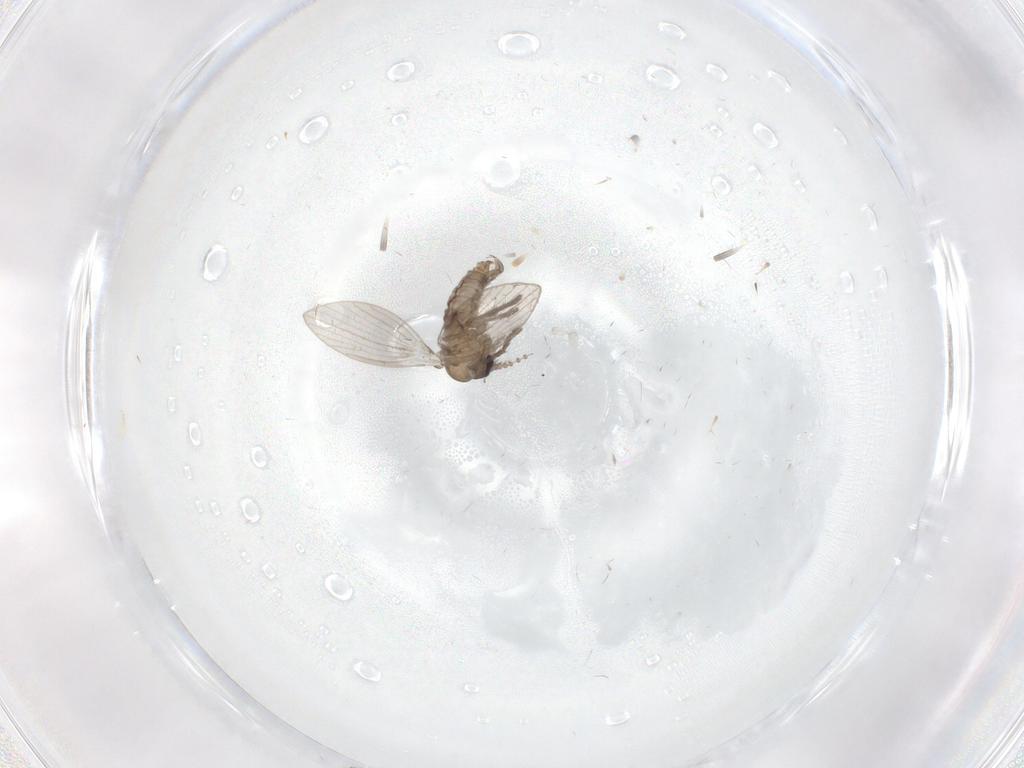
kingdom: Animalia
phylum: Arthropoda
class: Insecta
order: Diptera
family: Psychodidae
